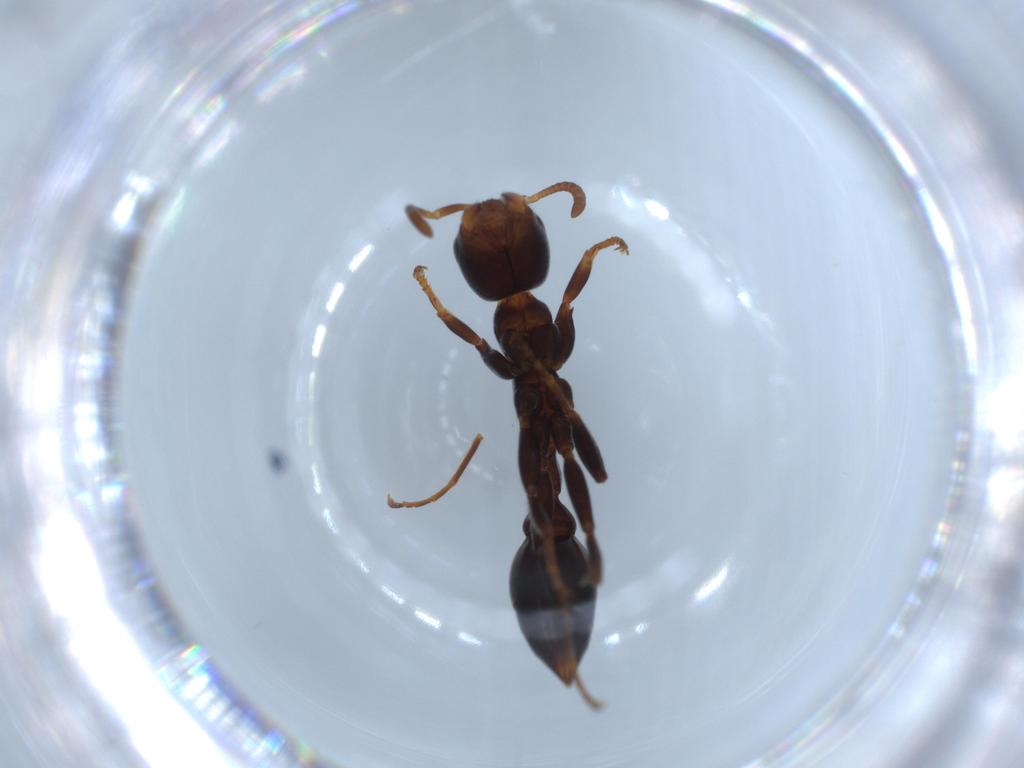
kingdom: Animalia
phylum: Arthropoda
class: Insecta
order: Hymenoptera
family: Formicidae
